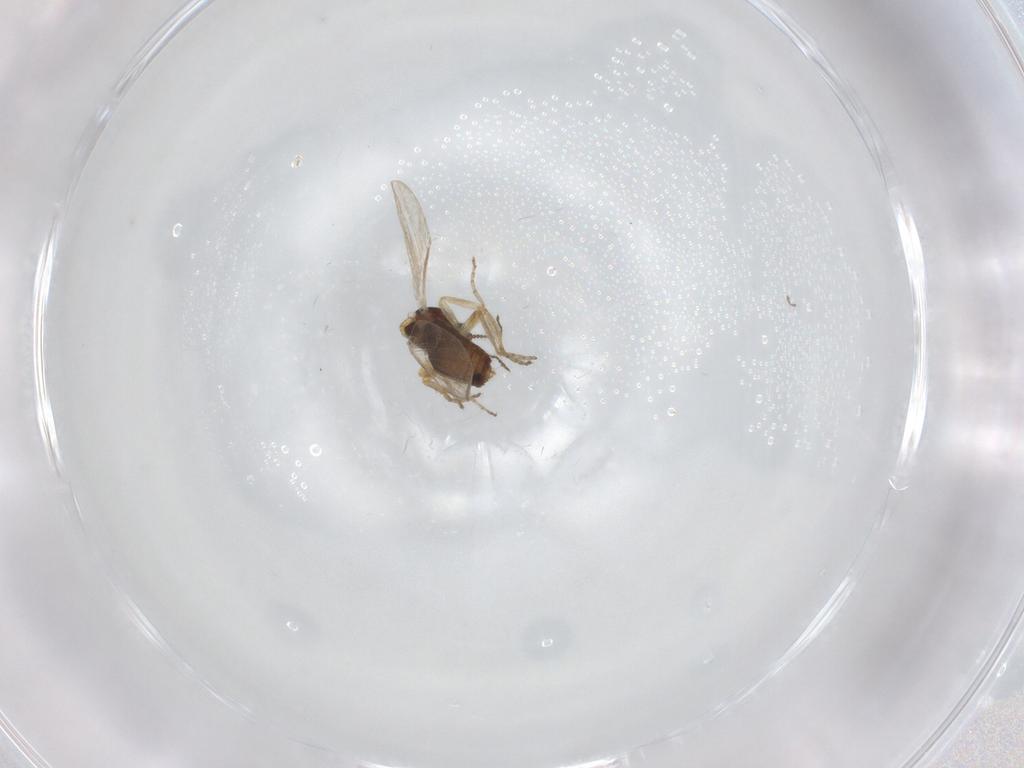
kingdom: Animalia
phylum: Arthropoda
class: Insecta
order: Diptera
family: Ceratopogonidae
